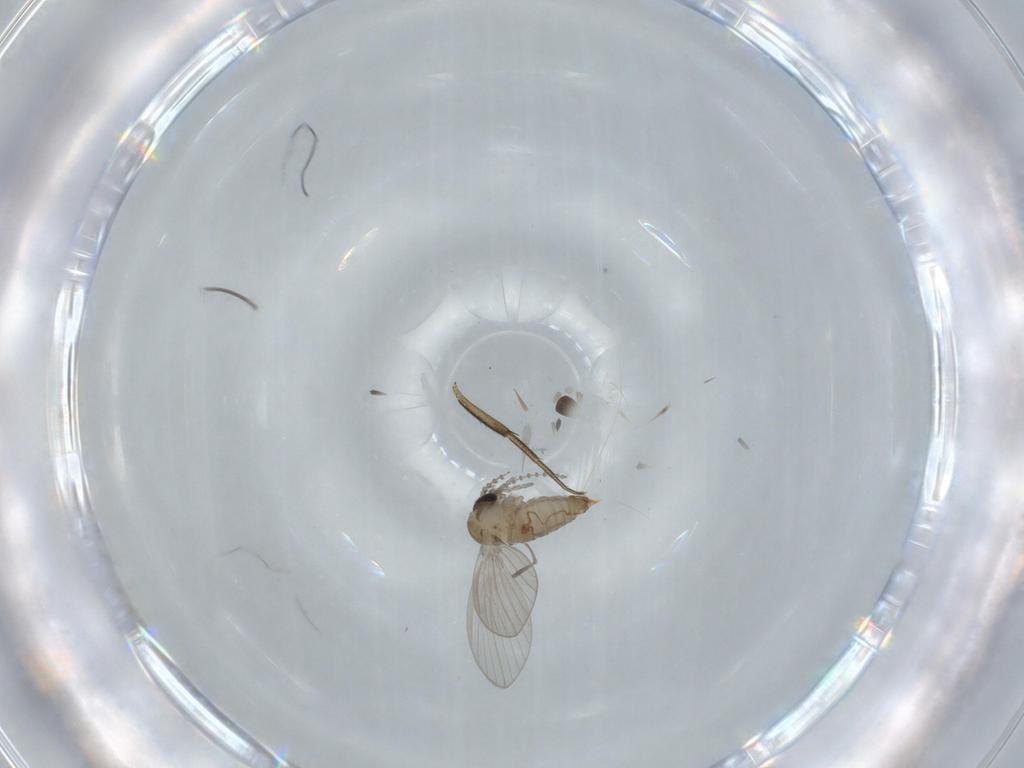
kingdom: Animalia
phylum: Arthropoda
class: Insecta
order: Diptera
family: Psychodidae
